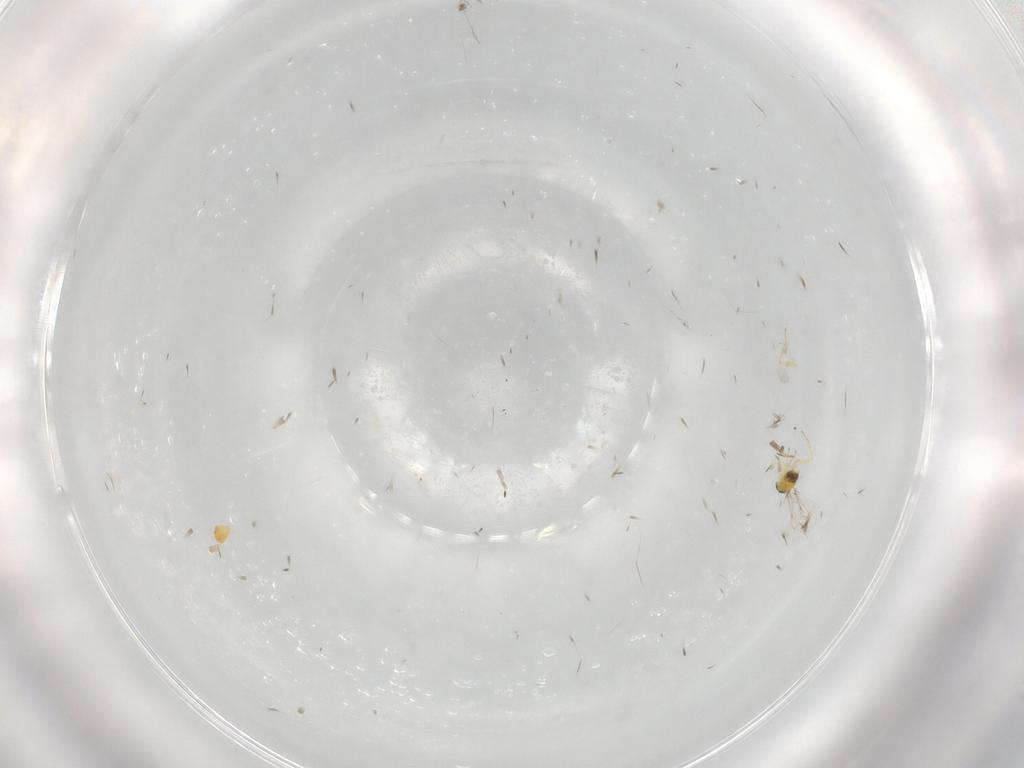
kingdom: Animalia
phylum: Arthropoda
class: Insecta
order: Hymenoptera
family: Eulophidae
